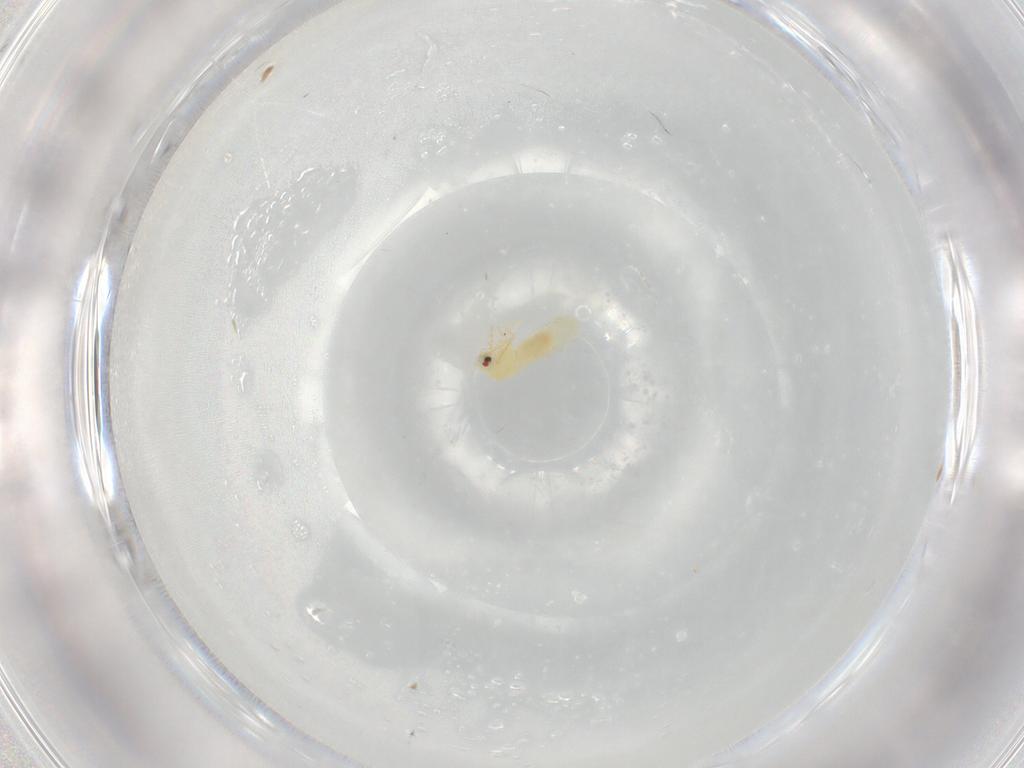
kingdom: Animalia
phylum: Arthropoda
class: Insecta
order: Hemiptera
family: Aleyrodidae
